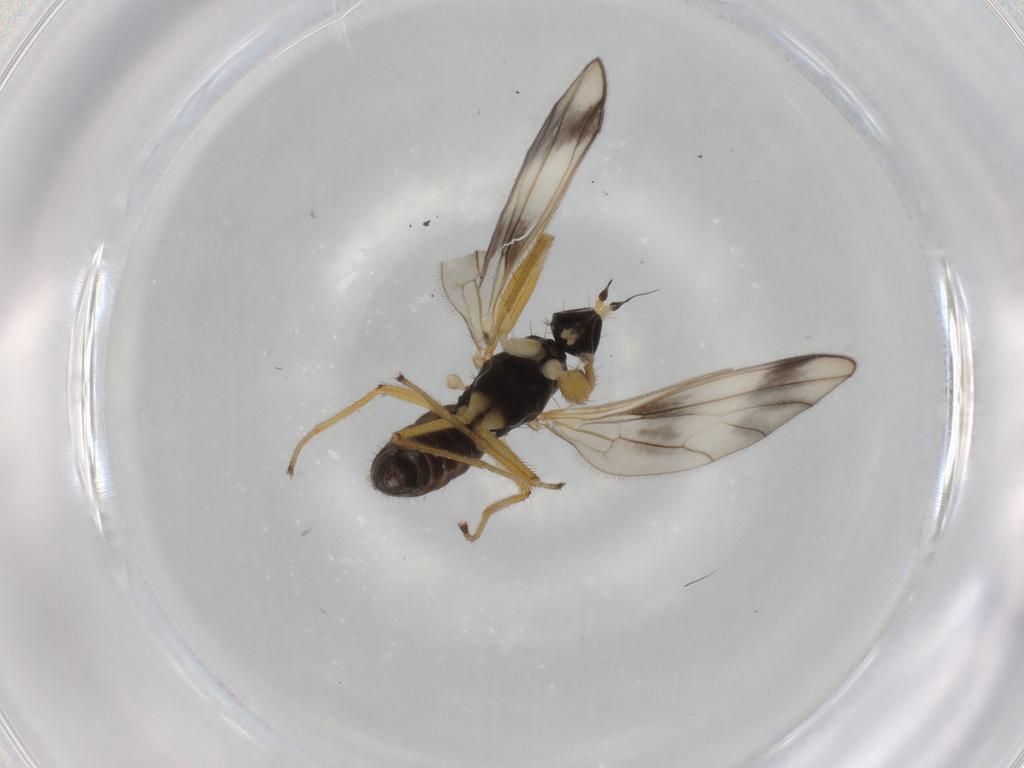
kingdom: Animalia
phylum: Arthropoda
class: Insecta
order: Diptera
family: Empididae
